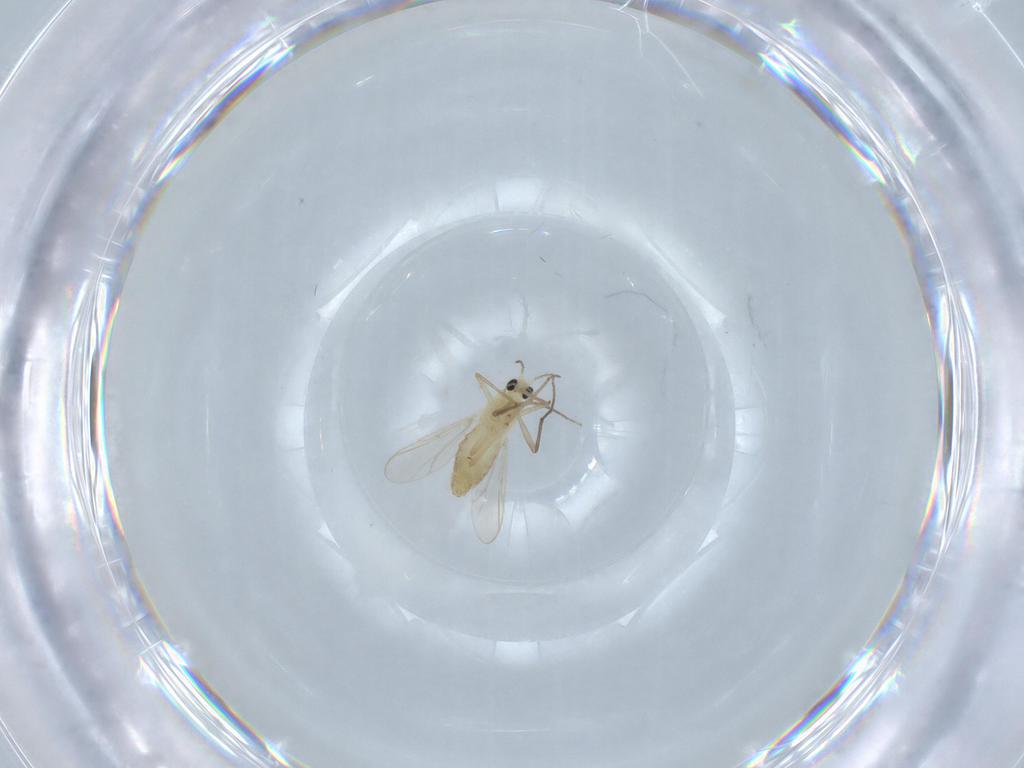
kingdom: Animalia
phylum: Arthropoda
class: Insecta
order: Diptera
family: Chironomidae
